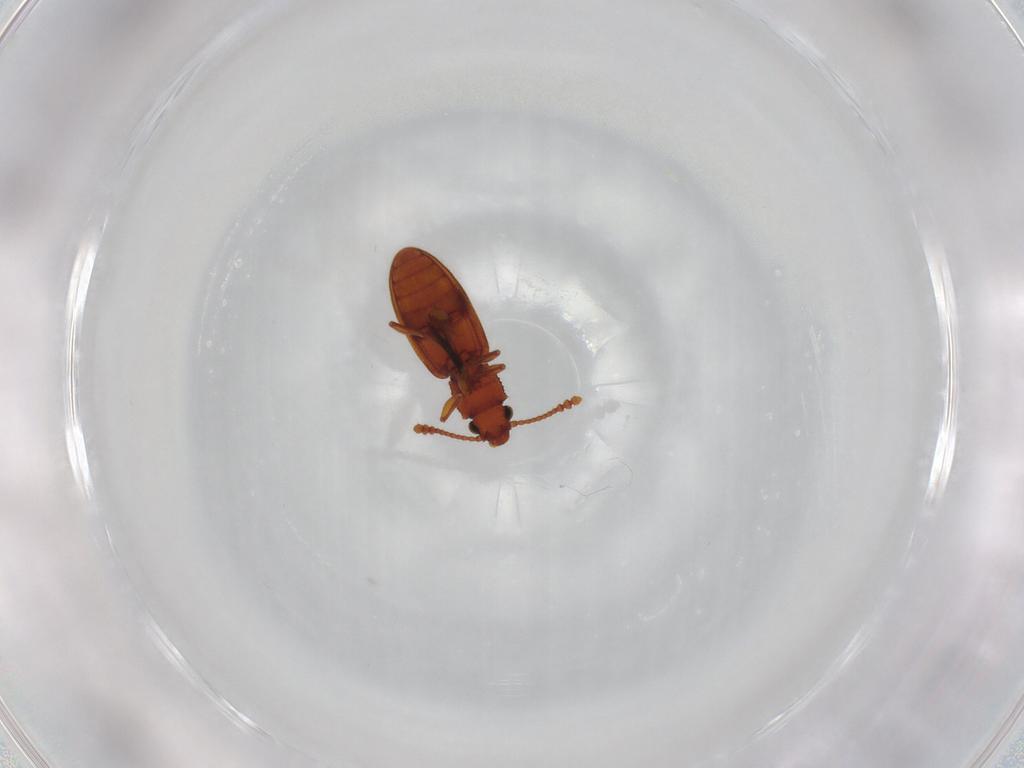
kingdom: Animalia
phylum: Arthropoda
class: Insecta
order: Coleoptera
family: Silvanidae
